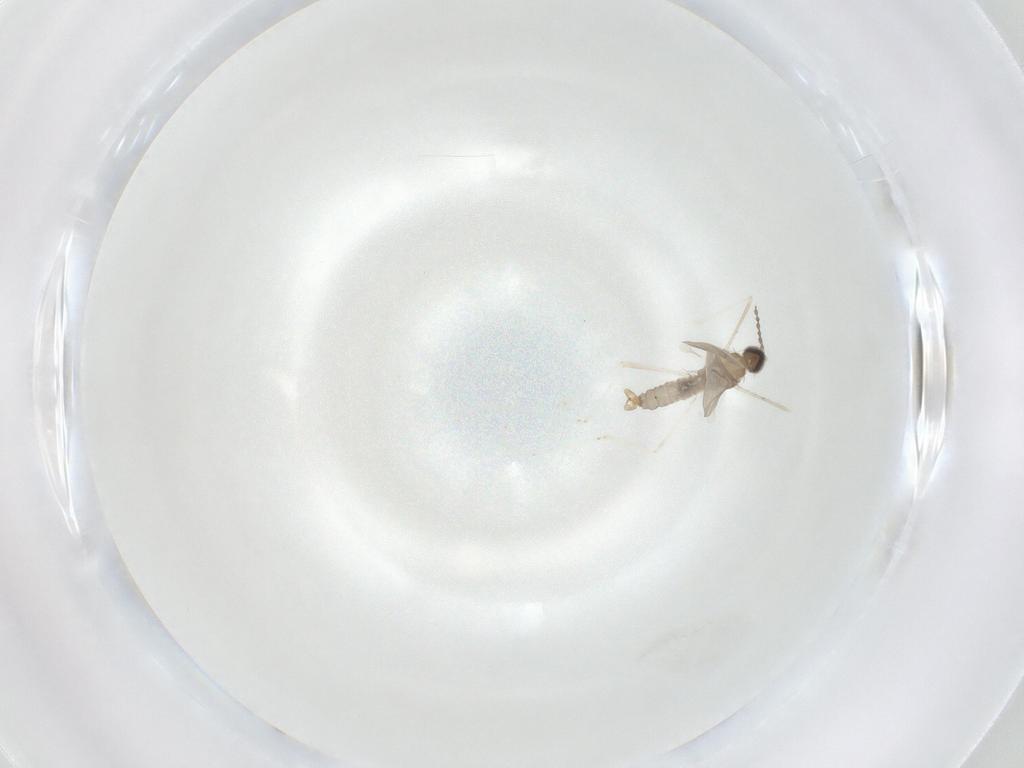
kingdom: Animalia
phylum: Arthropoda
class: Insecta
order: Diptera
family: Cecidomyiidae
